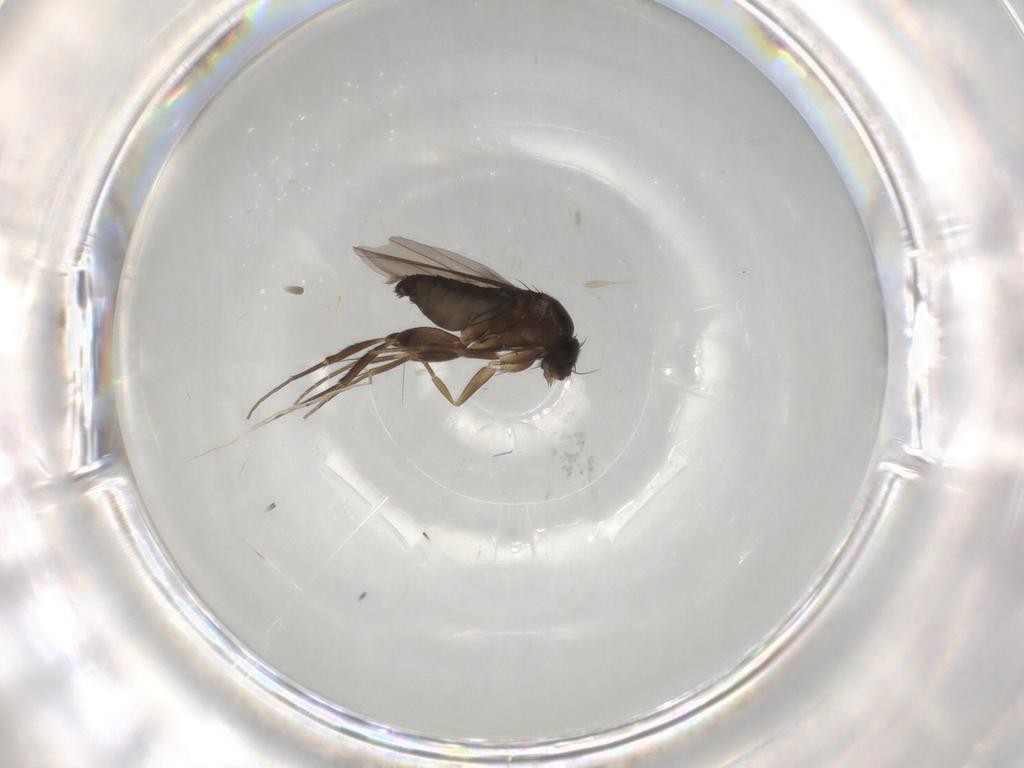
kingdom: Animalia
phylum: Arthropoda
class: Insecta
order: Diptera
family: Phoridae
